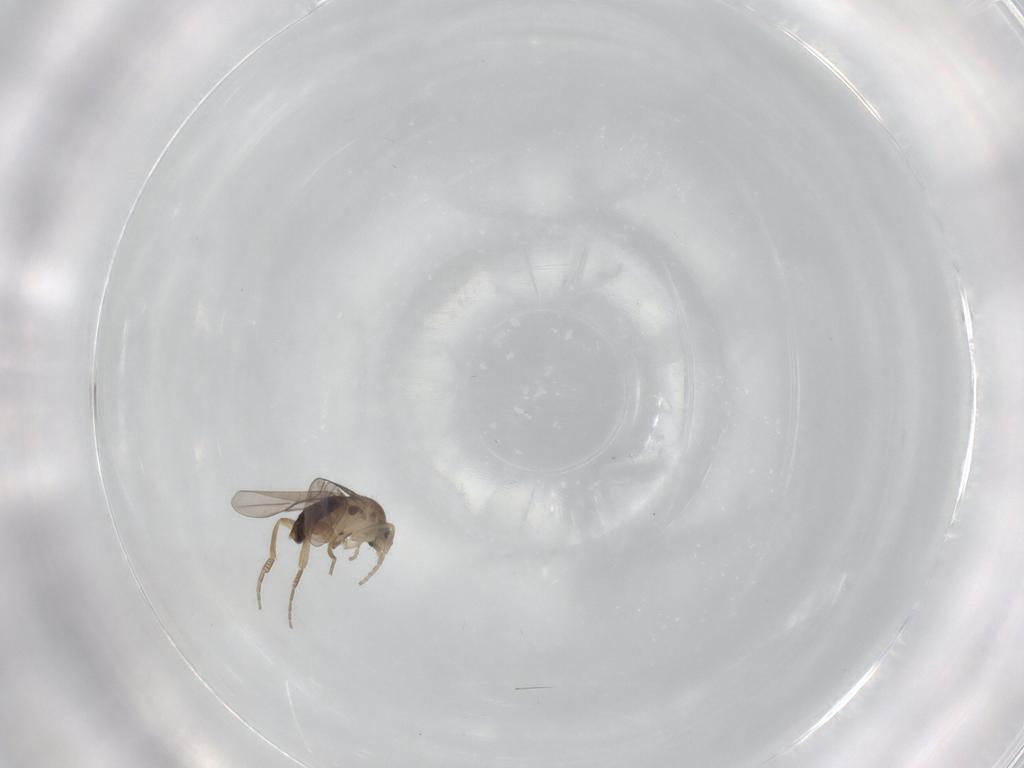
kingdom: Animalia
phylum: Arthropoda
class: Insecta
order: Diptera
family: Phoridae
